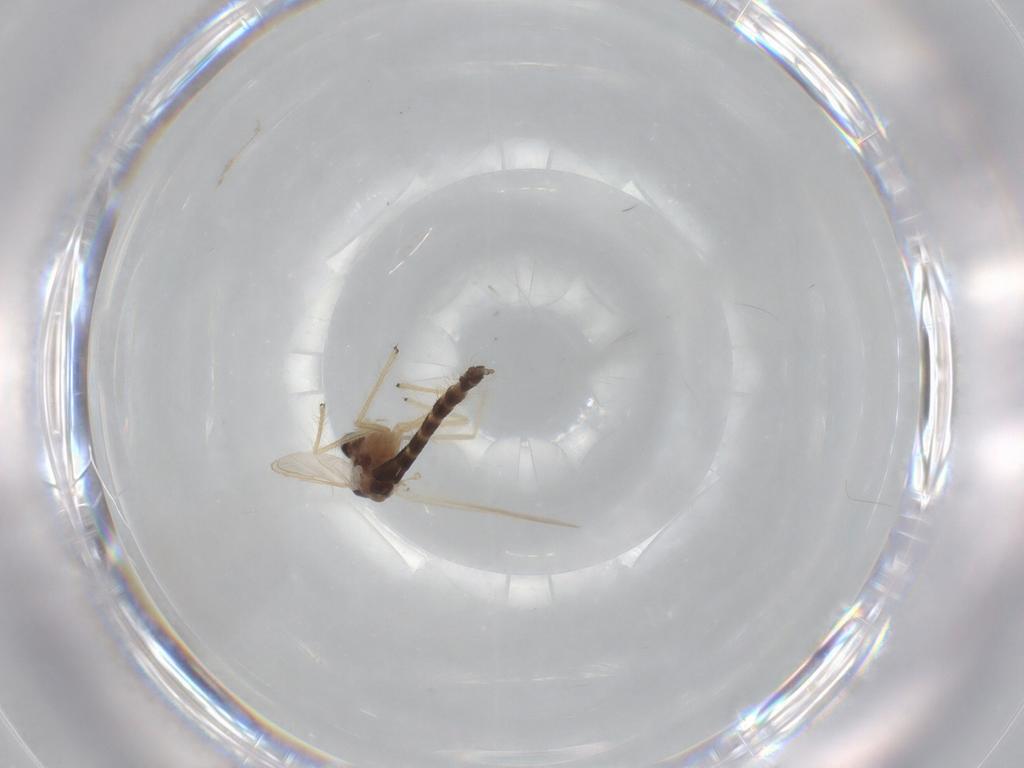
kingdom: Animalia
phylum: Arthropoda
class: Insecta
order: Diptera
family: Chironomidae
